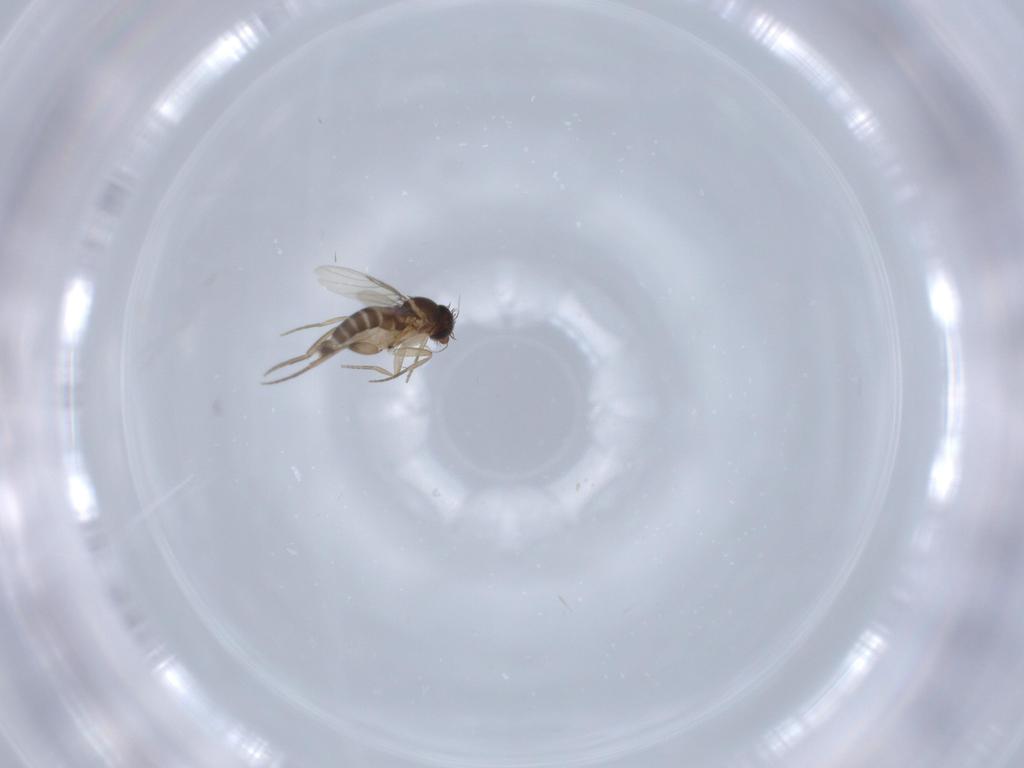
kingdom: Animalia
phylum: Arthropoda
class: Insecta
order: Diptera
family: Cecidomyiidae
